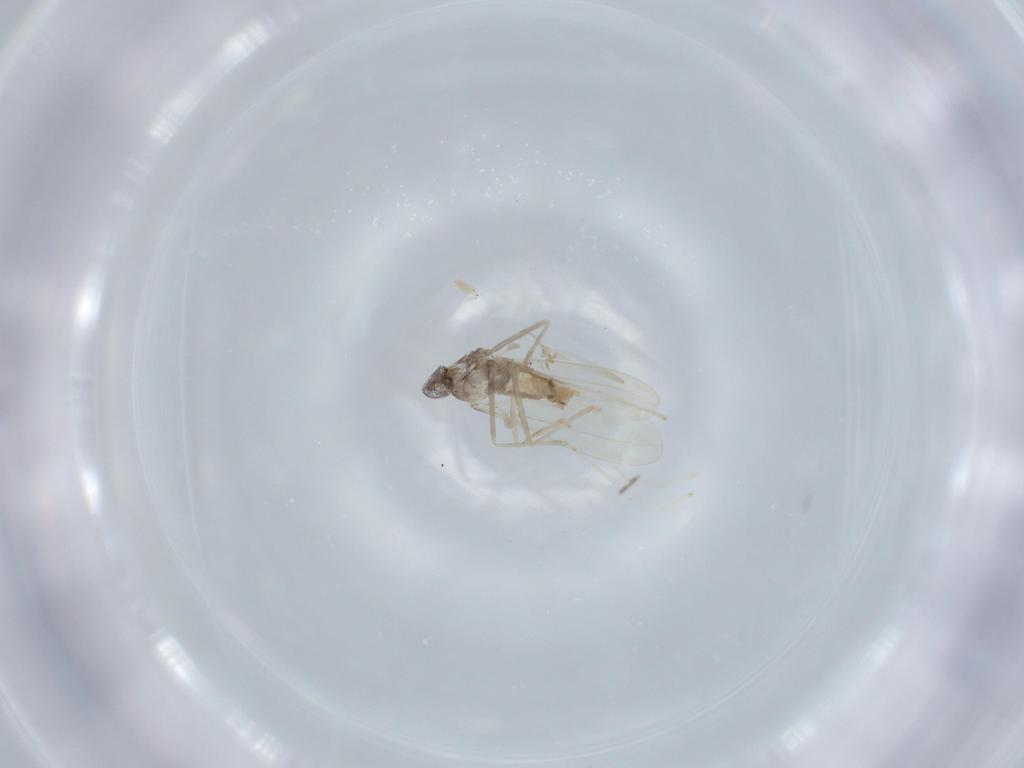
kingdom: Animalia
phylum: Arthropoda
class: Insecta
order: Diptera
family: Cecidomyiidae
